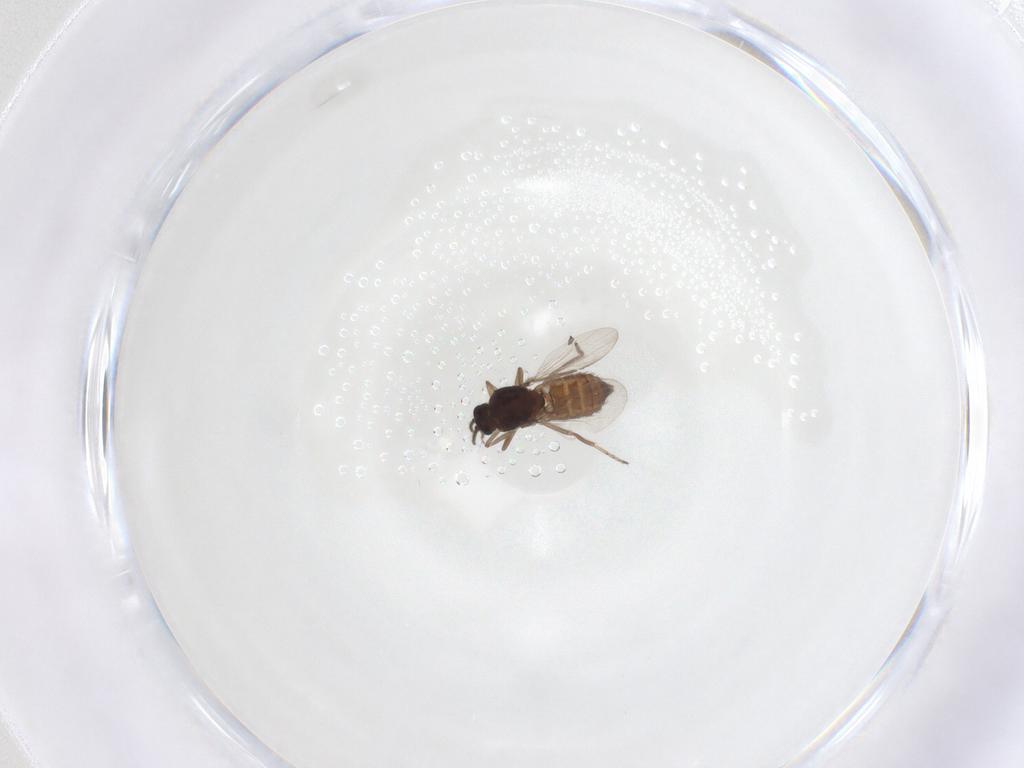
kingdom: Animalia
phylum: Arthropoda
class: Insecta
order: Diptera
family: Ceratopogonidae
